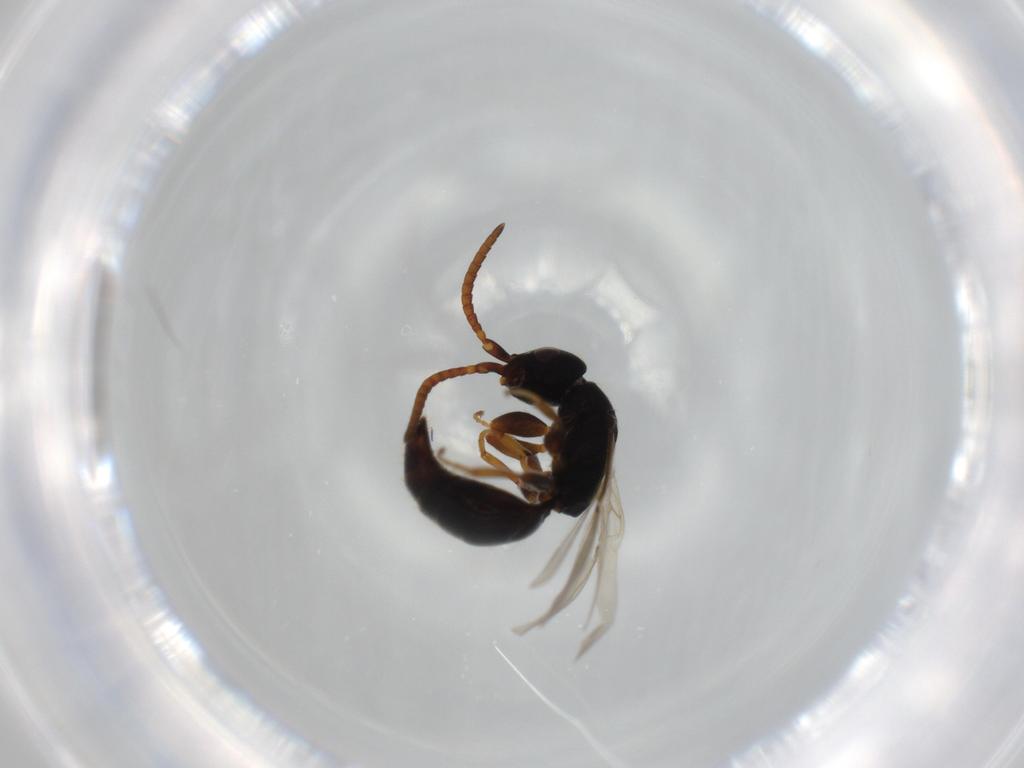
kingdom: Animalia
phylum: Arthropoda
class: Insecta
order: Hymenoptera
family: Bethylidae
